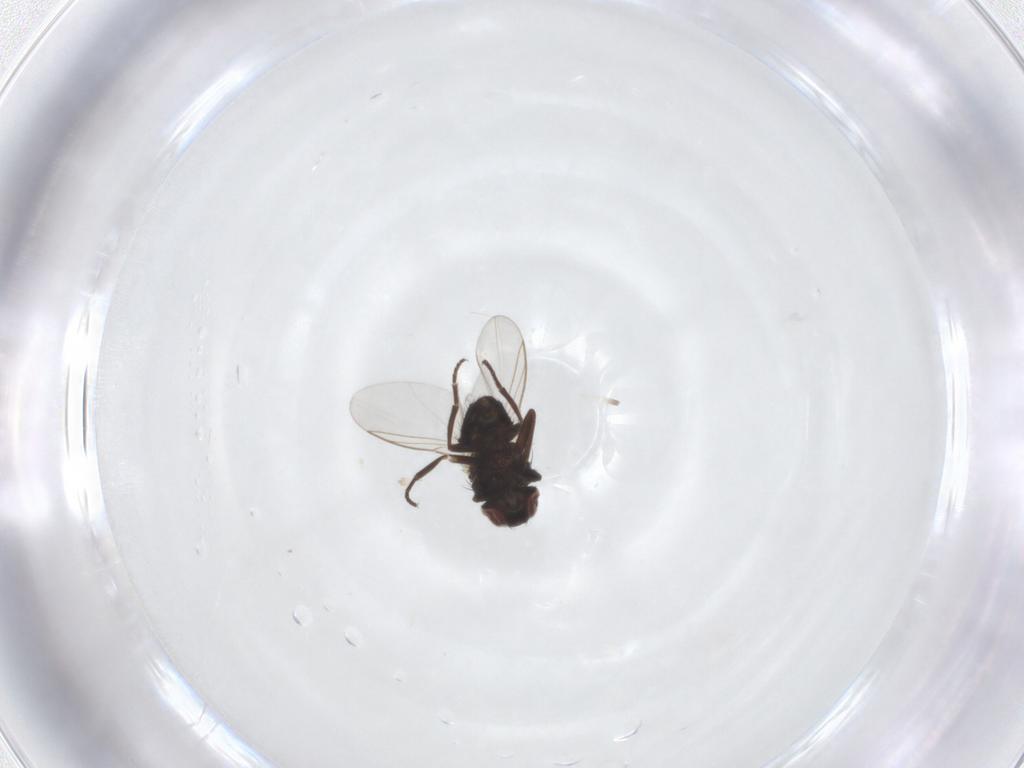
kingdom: Animalia
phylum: Arthropoda
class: Insecta
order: Diptera
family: Agromyzidae
